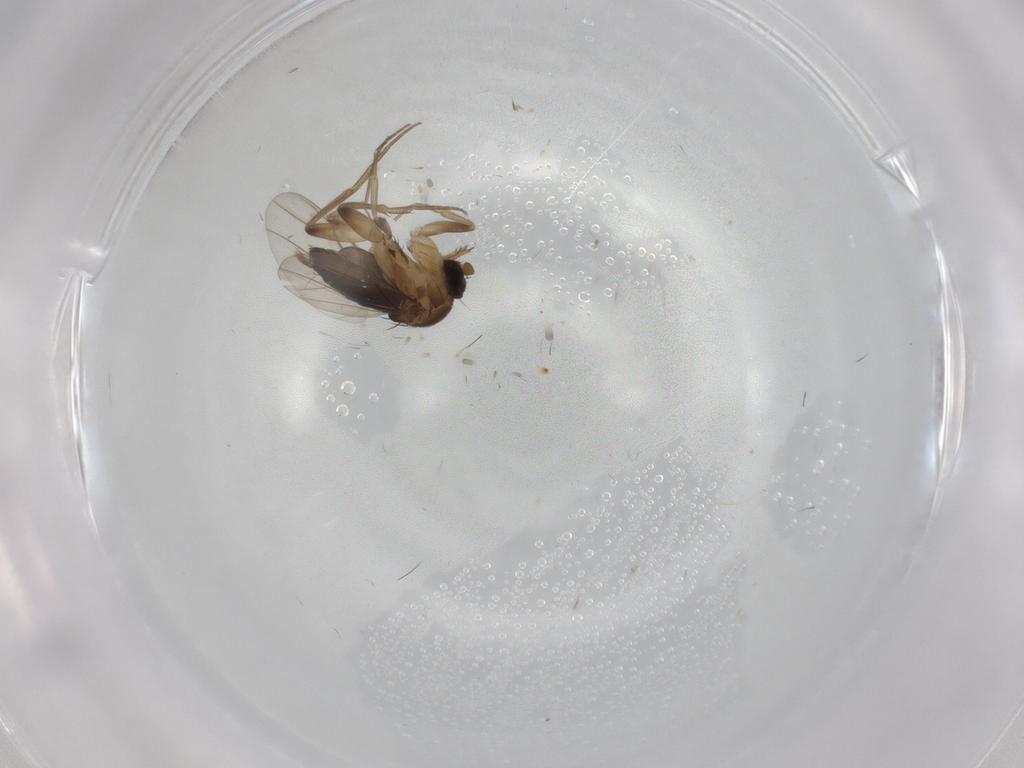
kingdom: Animalia
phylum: Arthropoda
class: Insecta
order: Diptera
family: Phoridae
